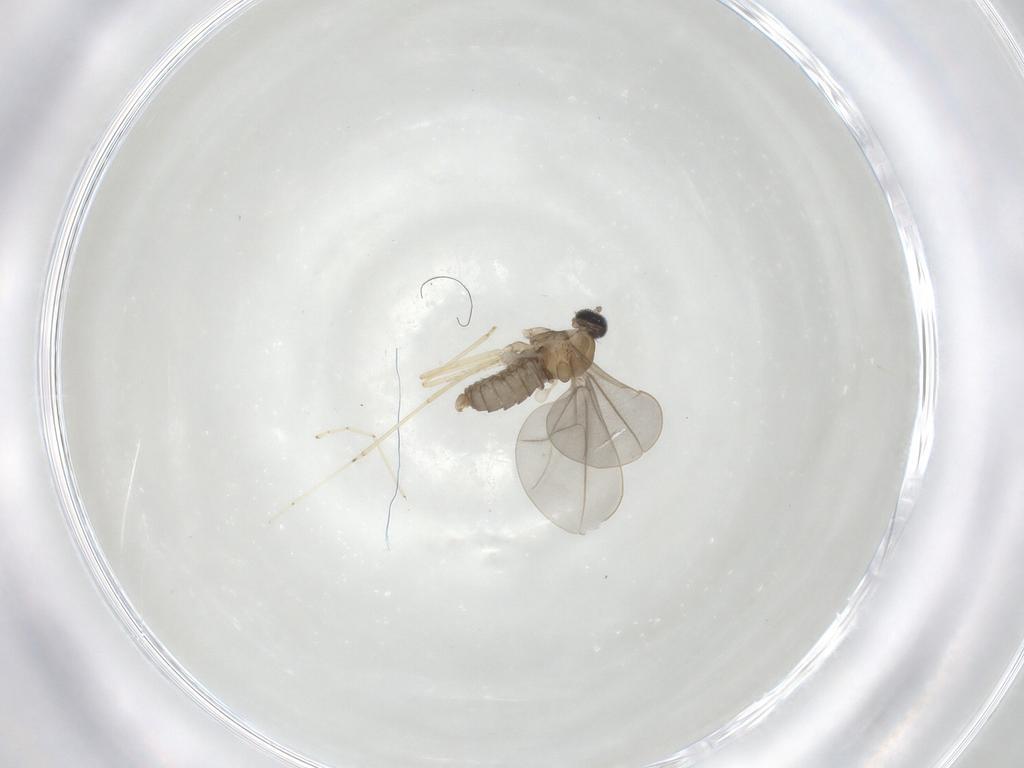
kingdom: Animalia
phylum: Arthropoda
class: Insecta
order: Diptera
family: Cecidomyiidae
